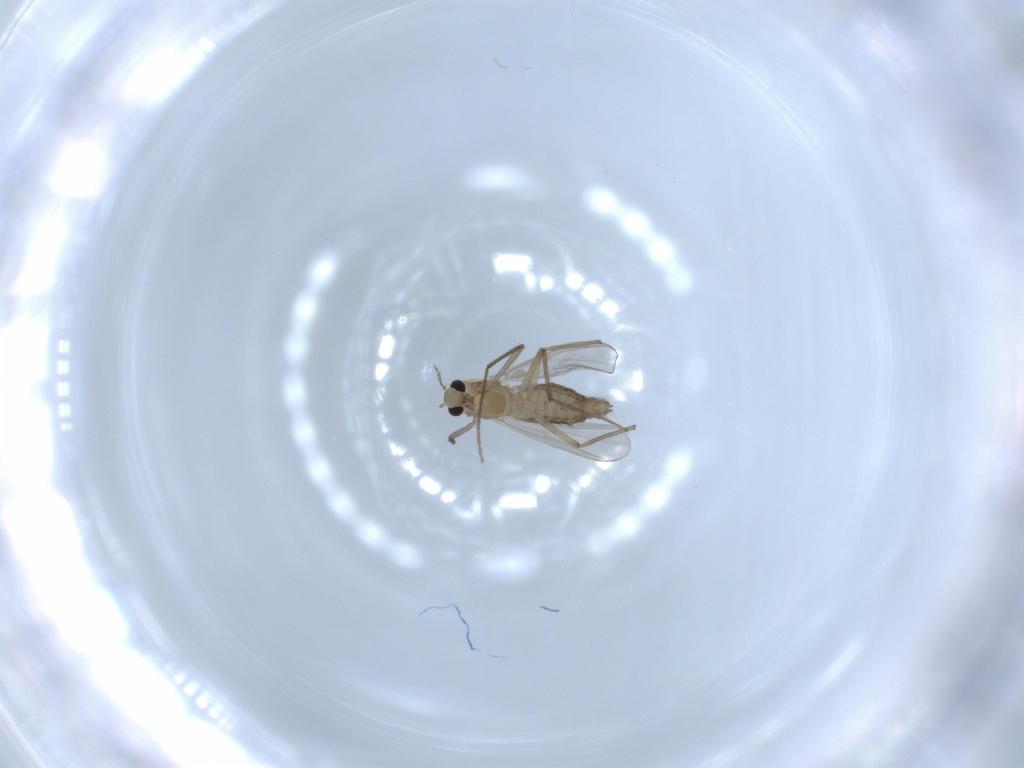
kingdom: Animalia
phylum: Arthropoda
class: Insecta
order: Diptera
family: Chironomidae
